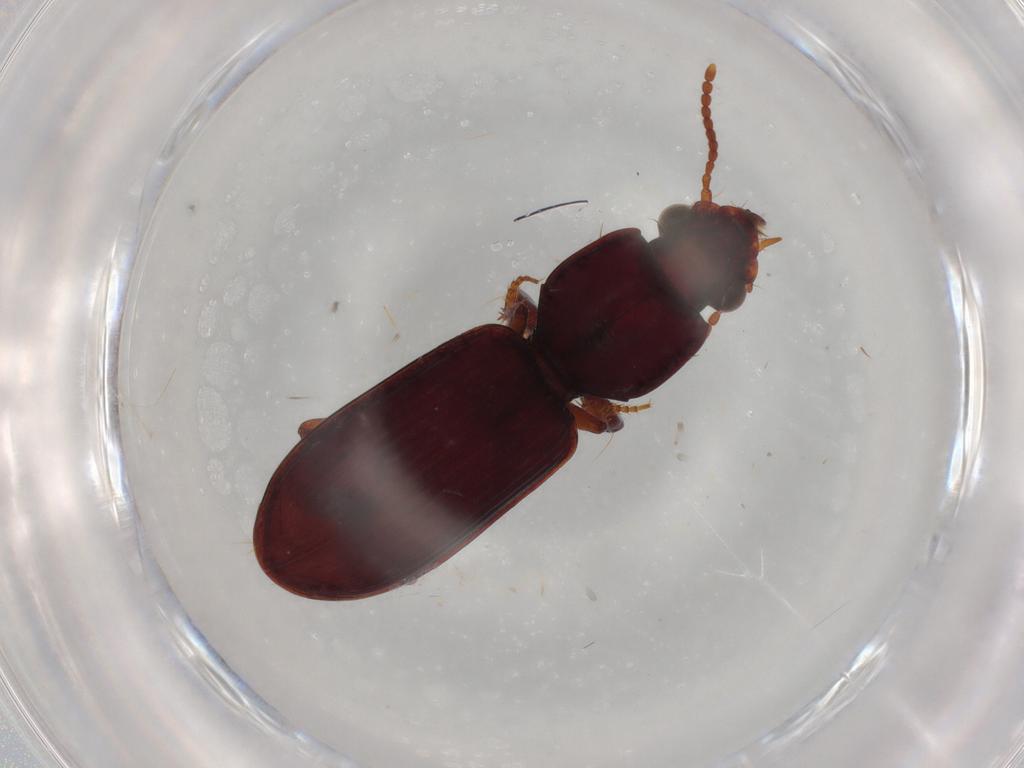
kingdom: Animalia
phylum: Arthropoda
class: Insecta
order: Coleoptera
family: Carabidae
